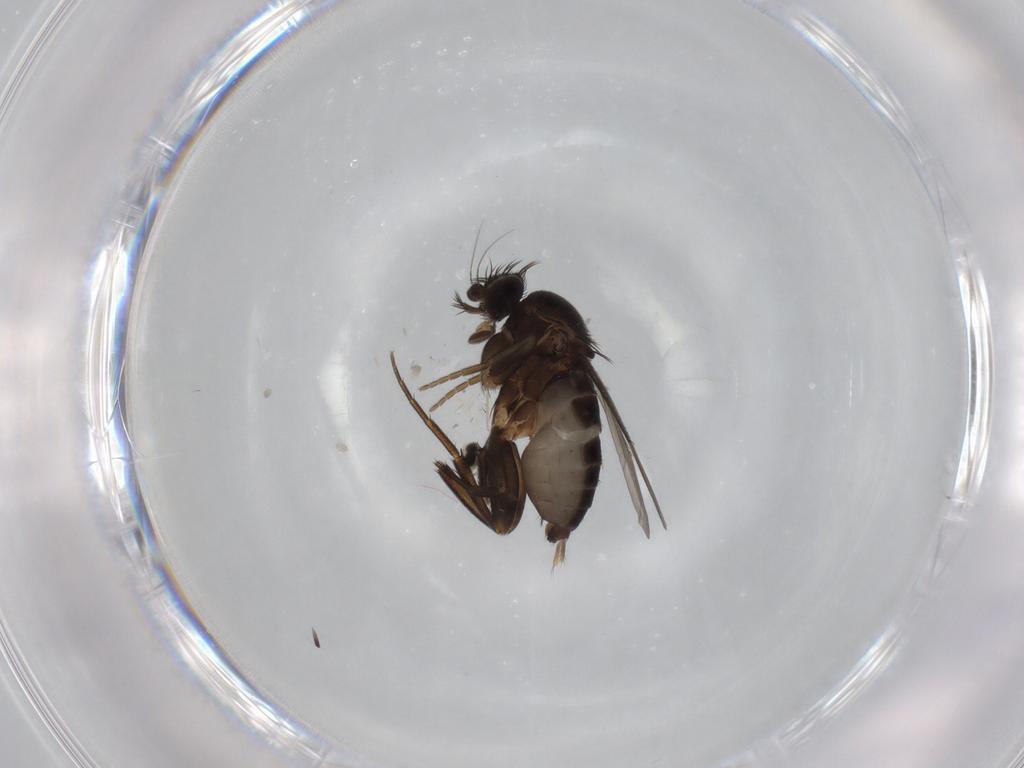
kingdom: Animalia
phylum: Arthropoda
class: Insecta
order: Diptera
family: Phoridae
